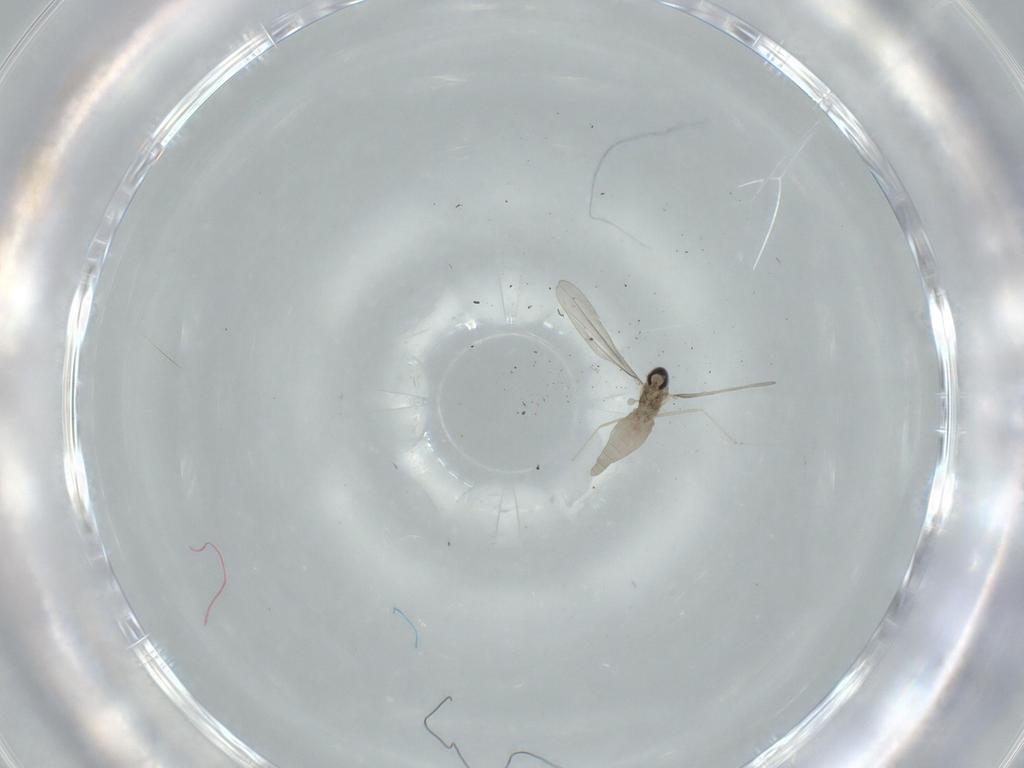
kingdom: Animalia
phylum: Arthropoda
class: Insecta
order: Diptera
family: Cecidomyiidae
